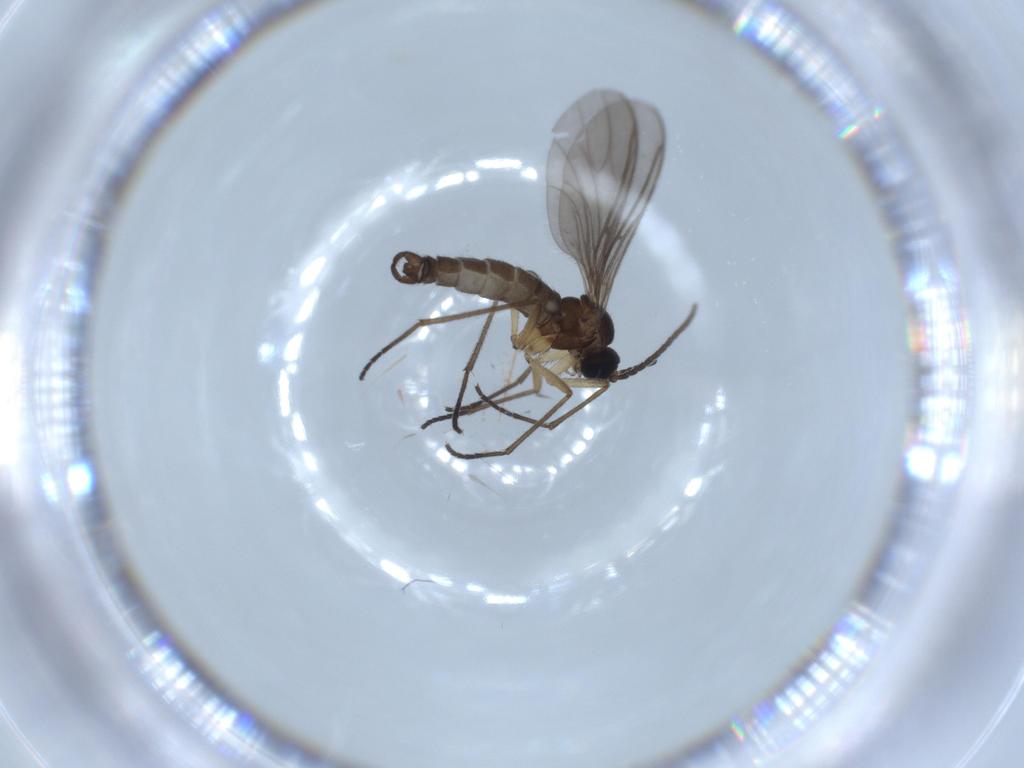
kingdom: Animalia
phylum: Arthropoda
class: Insecta
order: Diptera
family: Sciaridae
